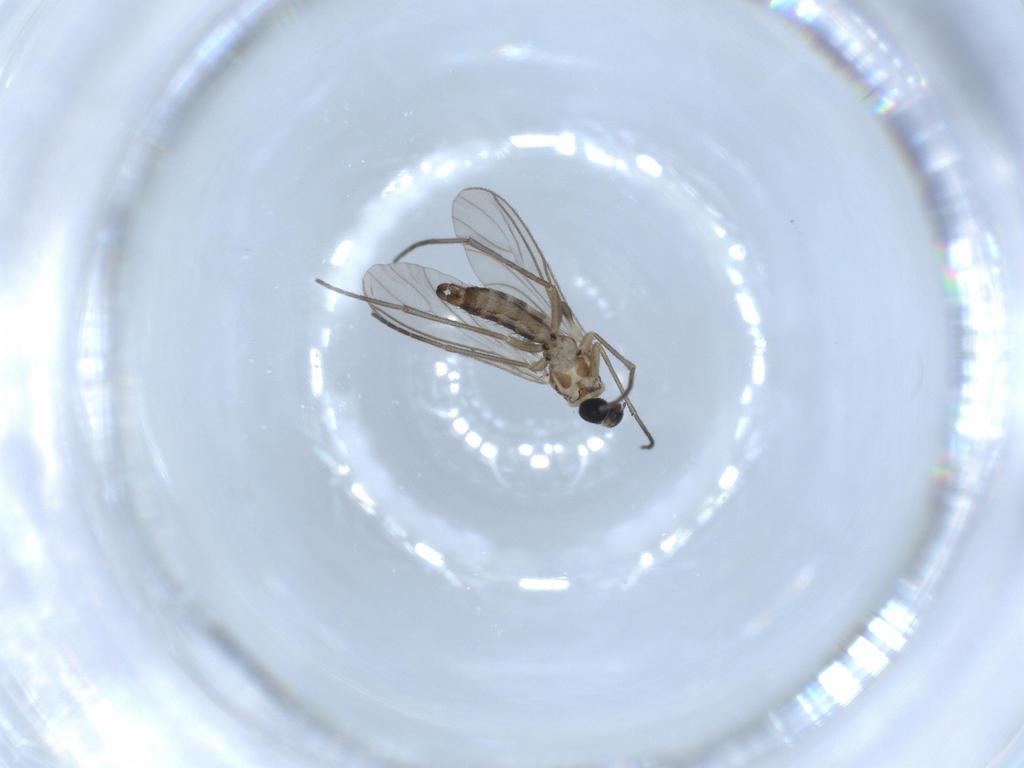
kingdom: Animalia
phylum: Arthropoda
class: Insecta
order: Diptera
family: Sciaridae
